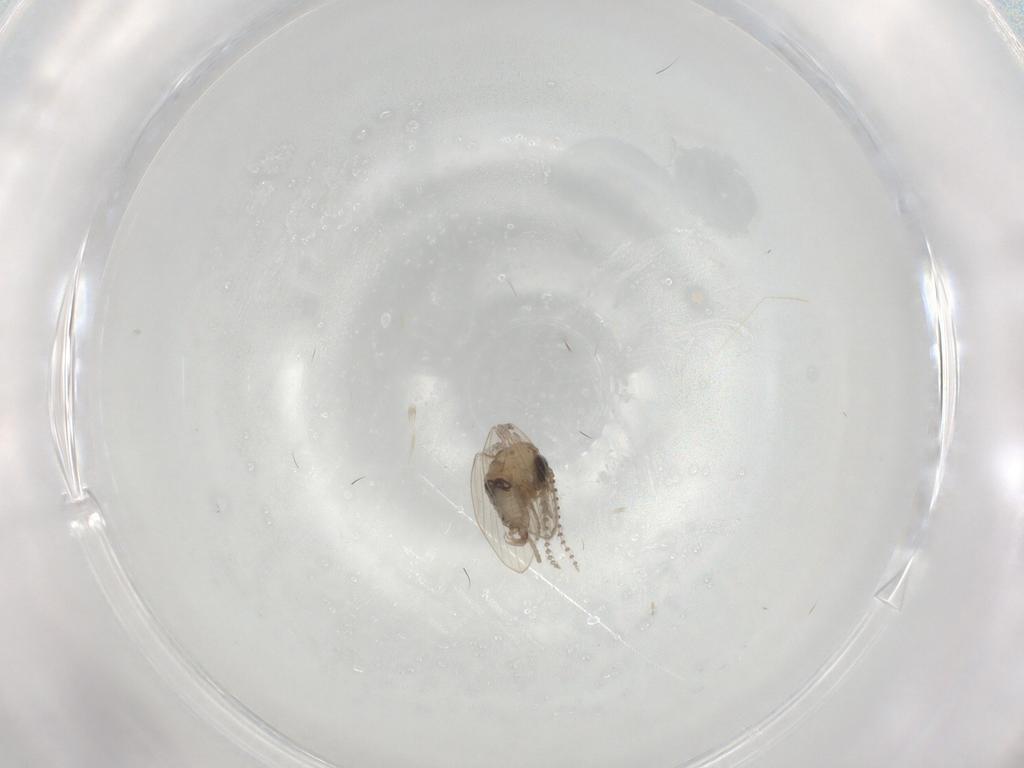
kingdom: Animalia
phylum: Arthropoda
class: Insecta
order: Diptera
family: Psychodidae
